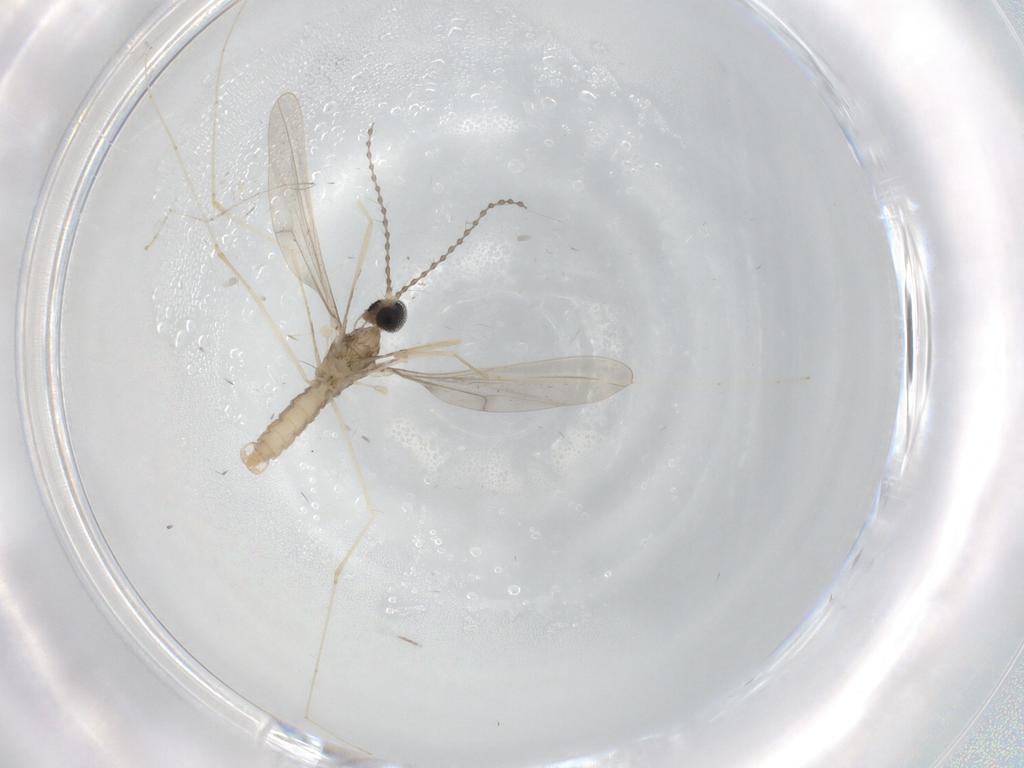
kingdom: Animalia
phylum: Arthropoda
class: Insecta
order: Diptera
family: Cecidomyiidae
